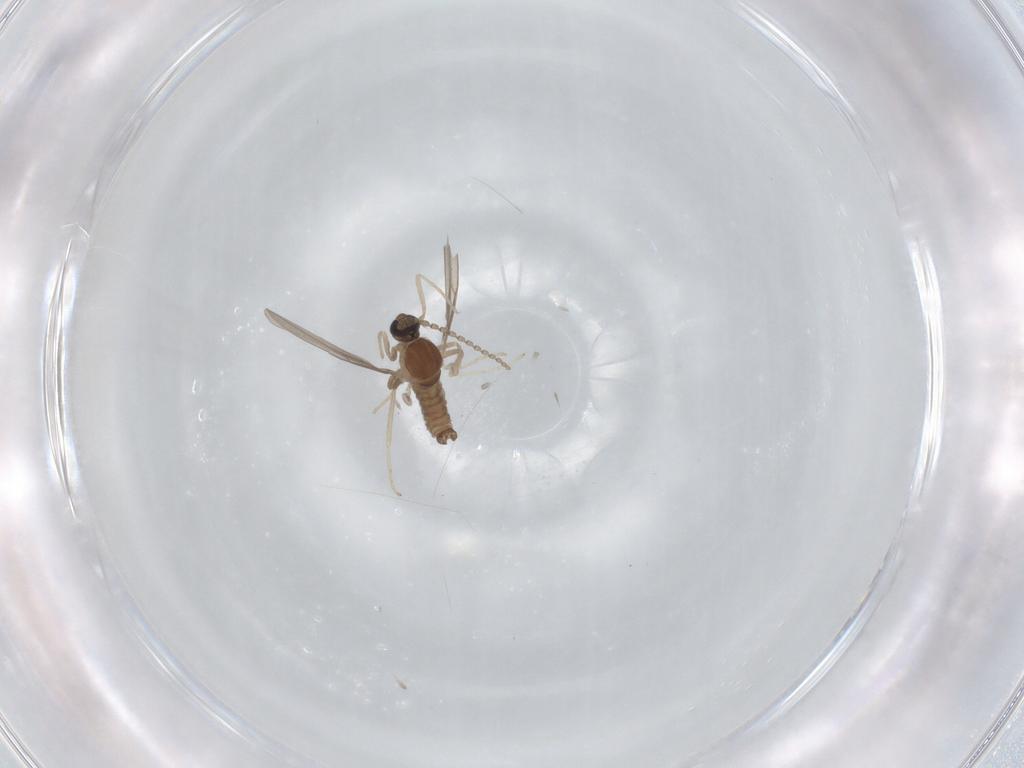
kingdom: Animalia
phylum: Arthropoda
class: Insecta
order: Diptera
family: Cecidomyiidae
